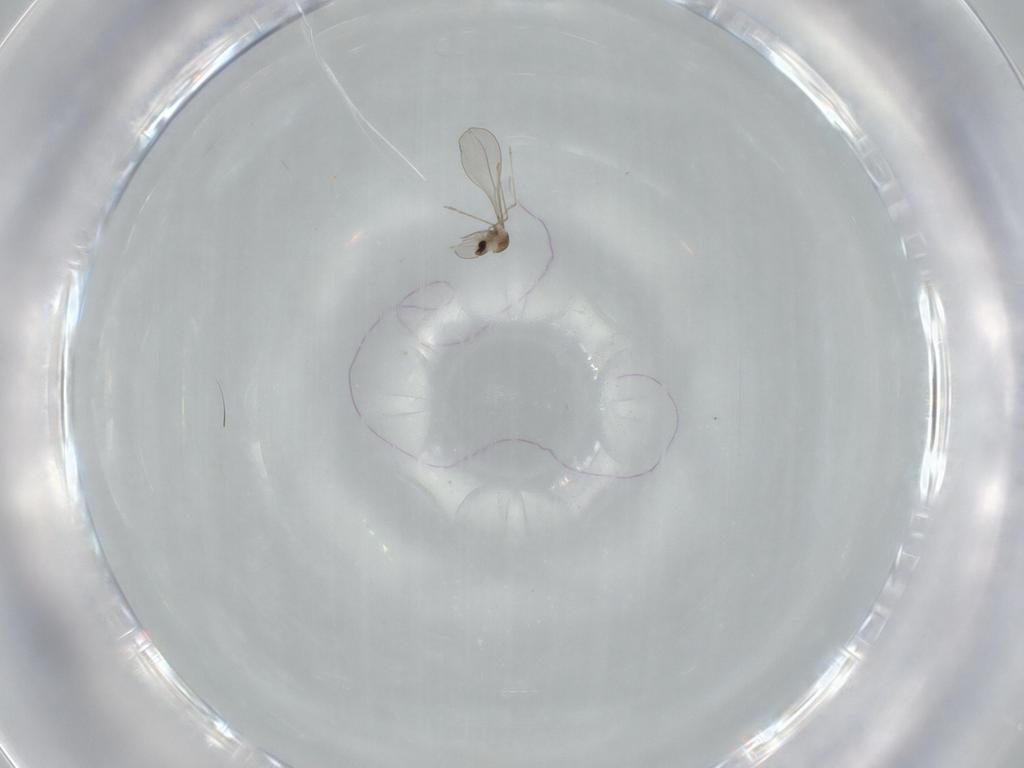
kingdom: Animalia
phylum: Arthropoda
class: Insecta
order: Diptera
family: Cecidomyiidae
